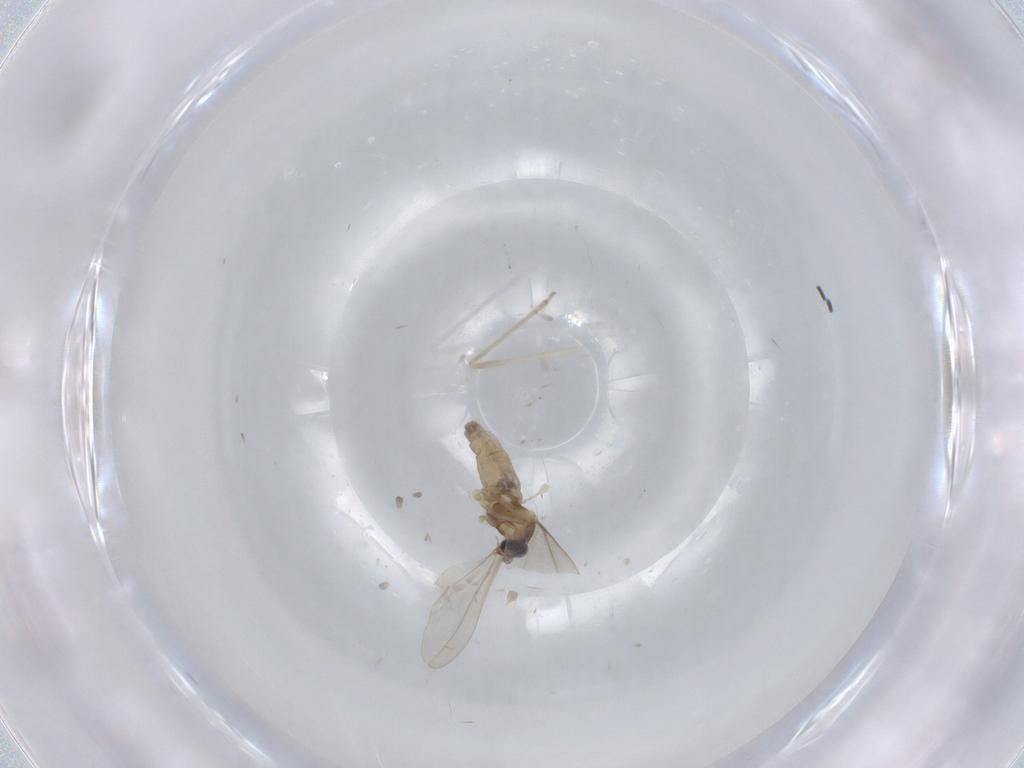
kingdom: Animalia
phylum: Arthropoda
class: Insecta
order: Diptera
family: Cecidomyiidae
